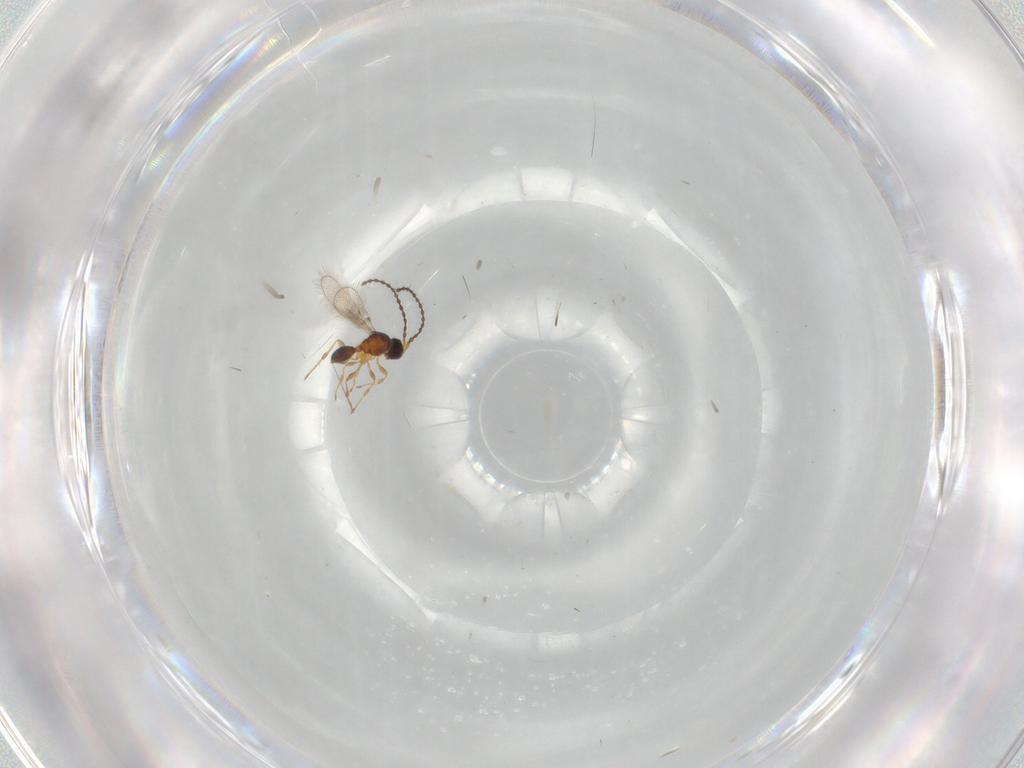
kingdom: Animalia
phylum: Arthropoda
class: Insecta
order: Hymenoptera
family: Diapriidae
